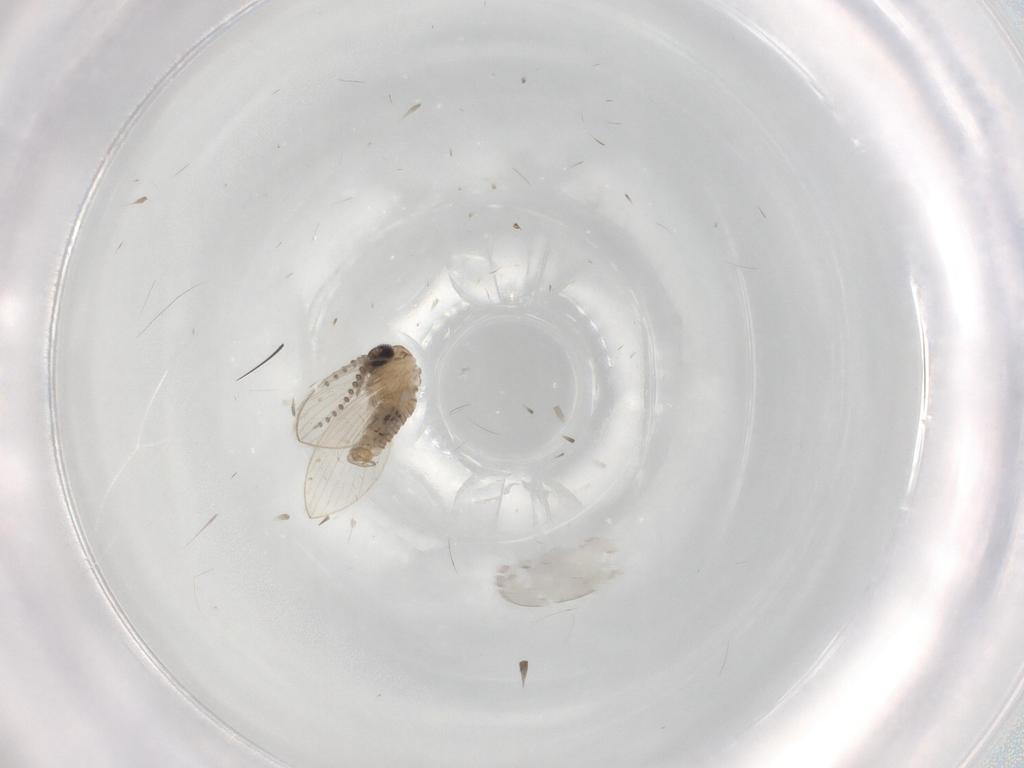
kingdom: Animalia
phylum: Arthropoda
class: Insecta
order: Diptera
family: Psychodidae
